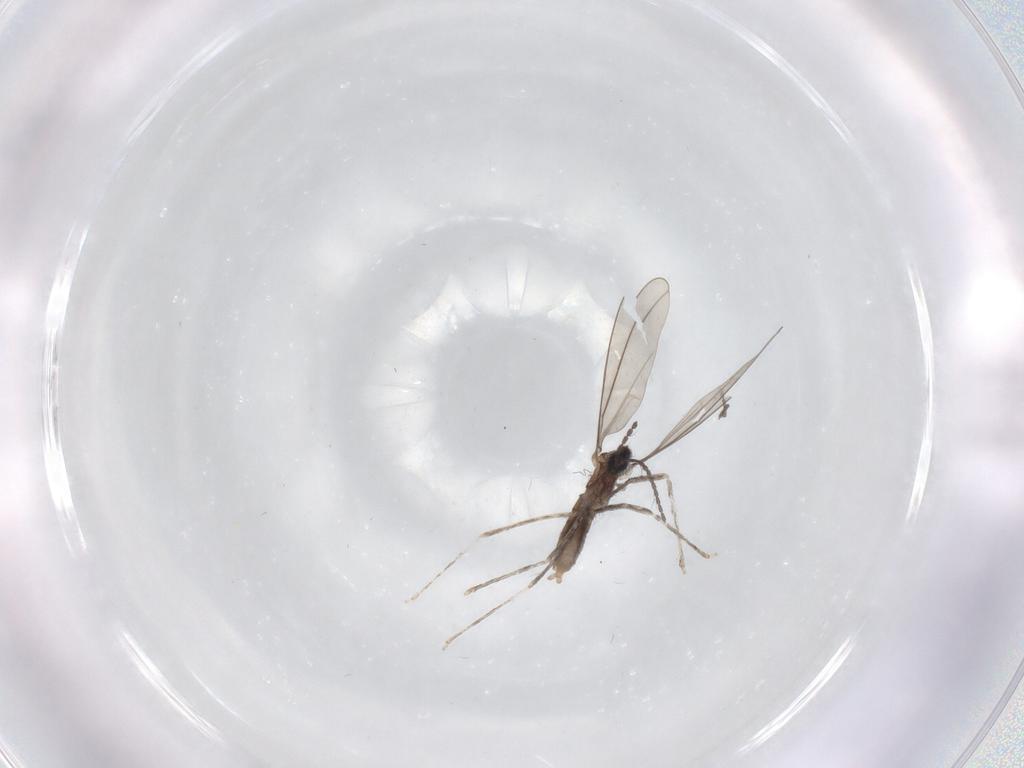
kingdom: Animalia
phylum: Arthropoda
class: Insecta
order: Diptera
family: Cecidomyiidae
